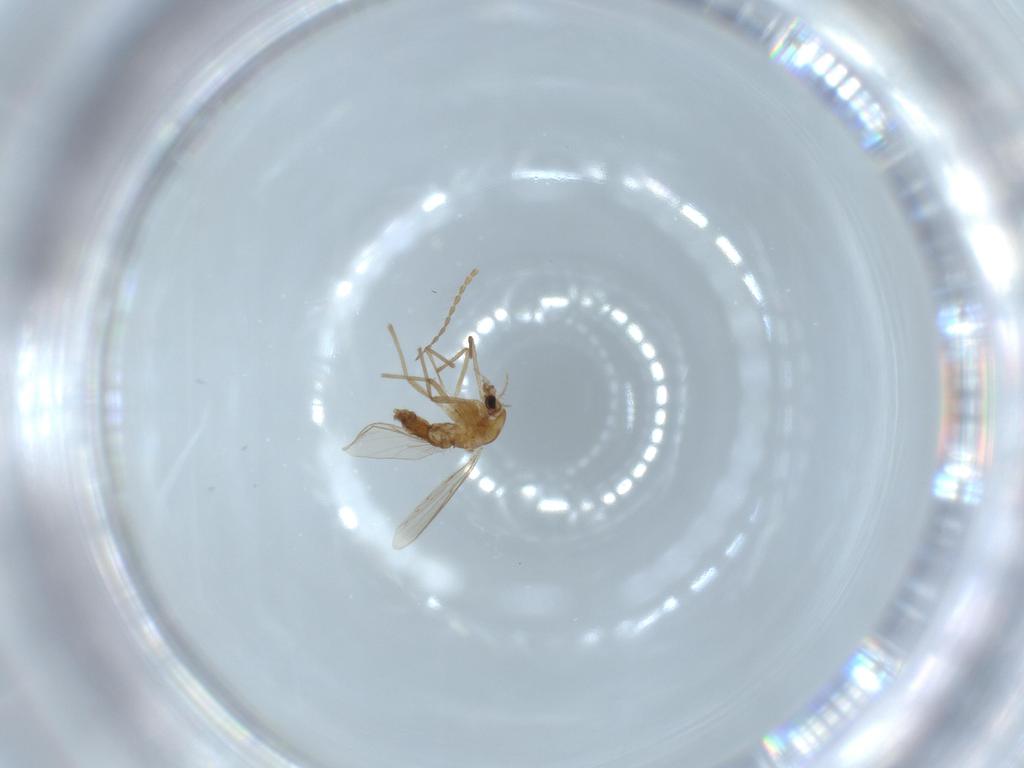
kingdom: Animalia
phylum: Arthropoda
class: Insecta
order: Diptera
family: Chironomidae
